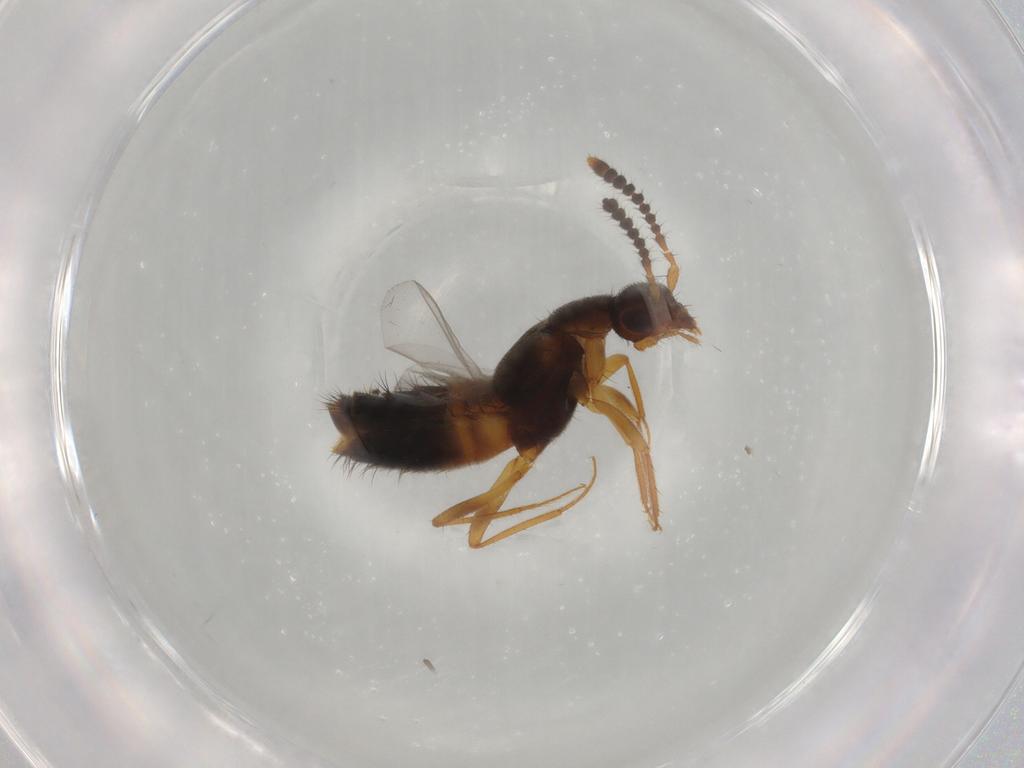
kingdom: Animalia
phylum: Arthropoda
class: Insecta
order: Coleoptera
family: Staphylinidae
